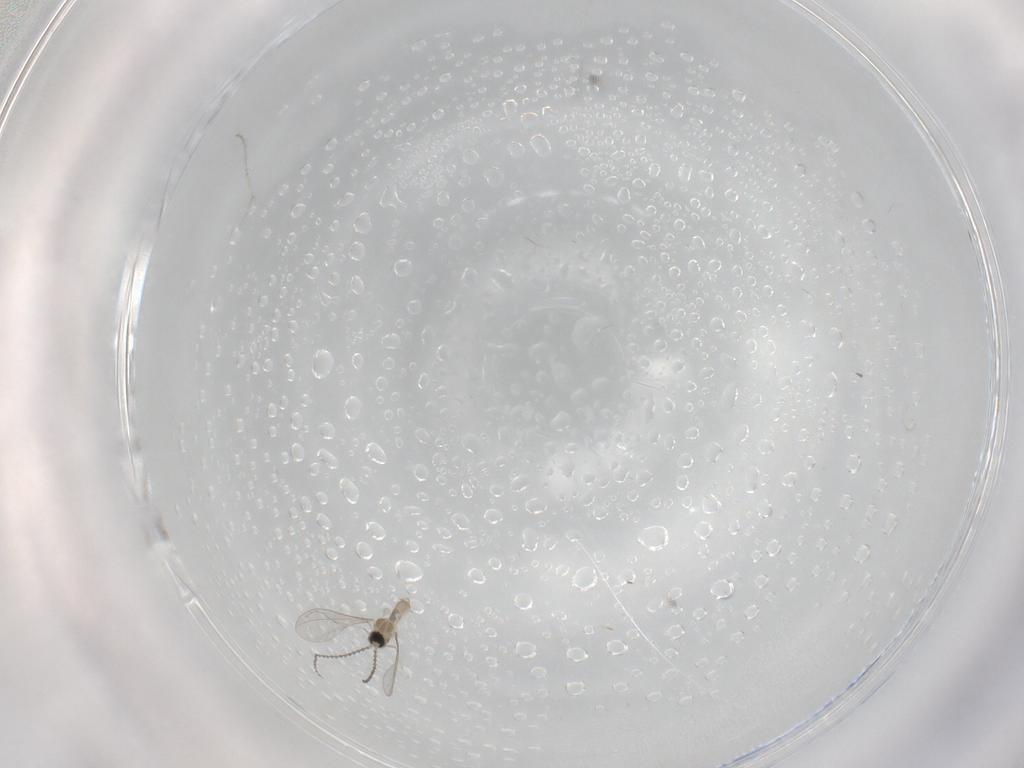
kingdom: Animalia
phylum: Arthropoda
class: Insecta
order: Diptera
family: Cecidomyiidae
